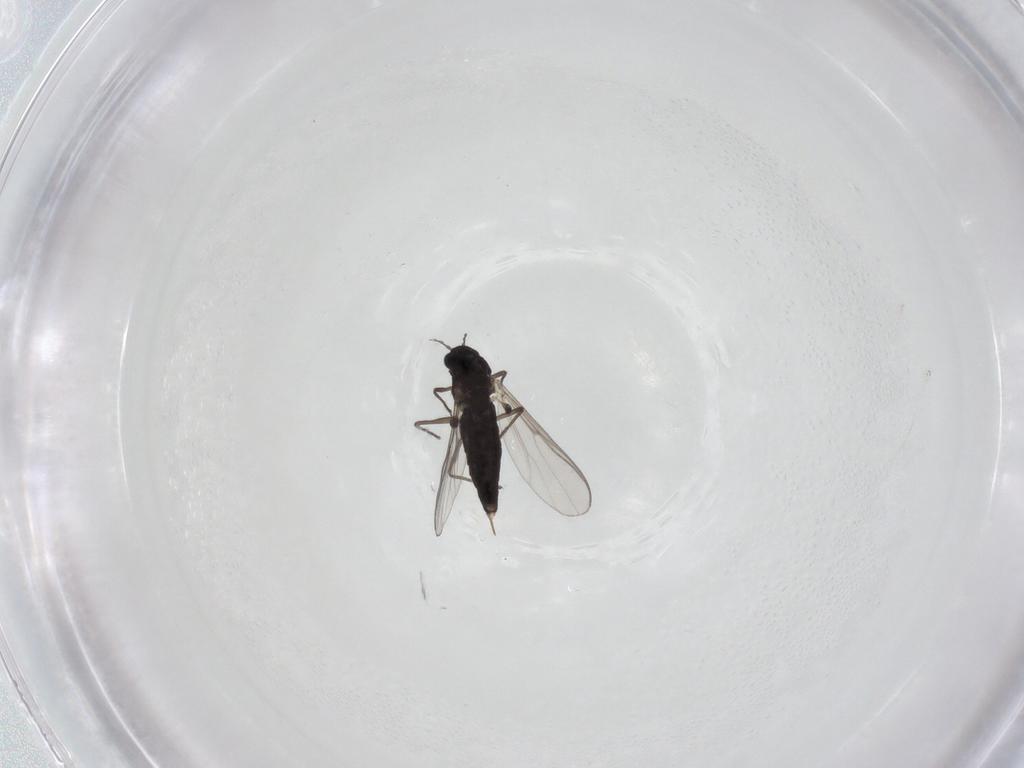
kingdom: Animalia
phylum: Arthropoda
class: Insecta
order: Diptera
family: Chironomidae
